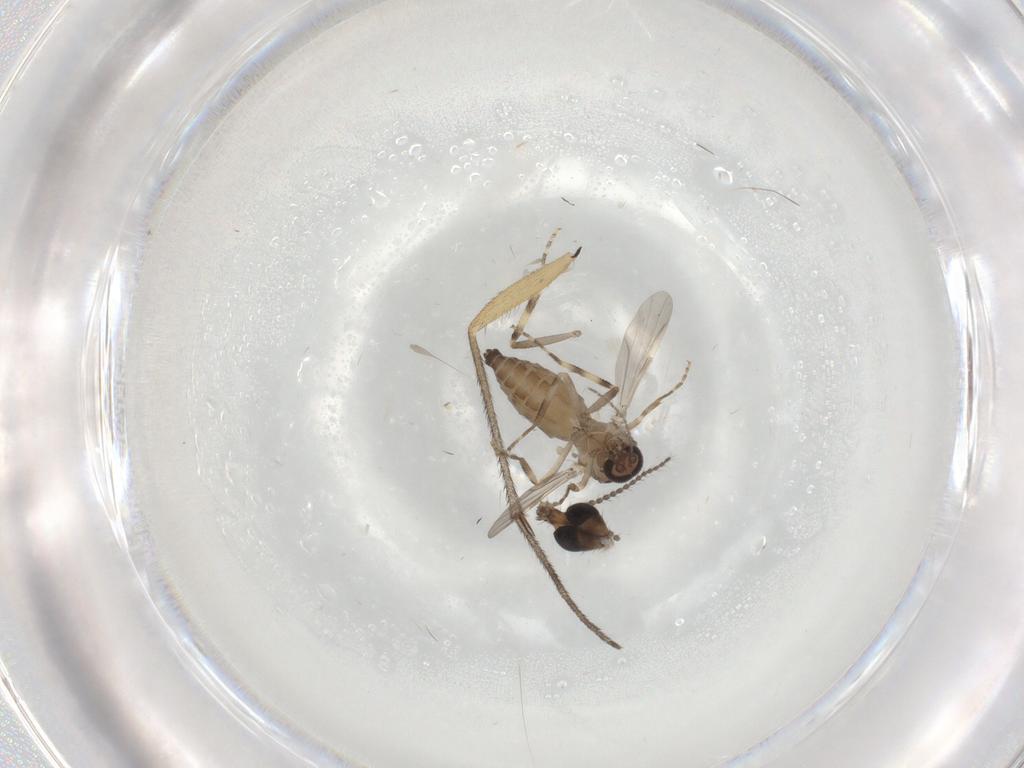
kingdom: Animalia
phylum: Arthropoda
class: Insecta
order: Diptera
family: Ceratopogonidae
